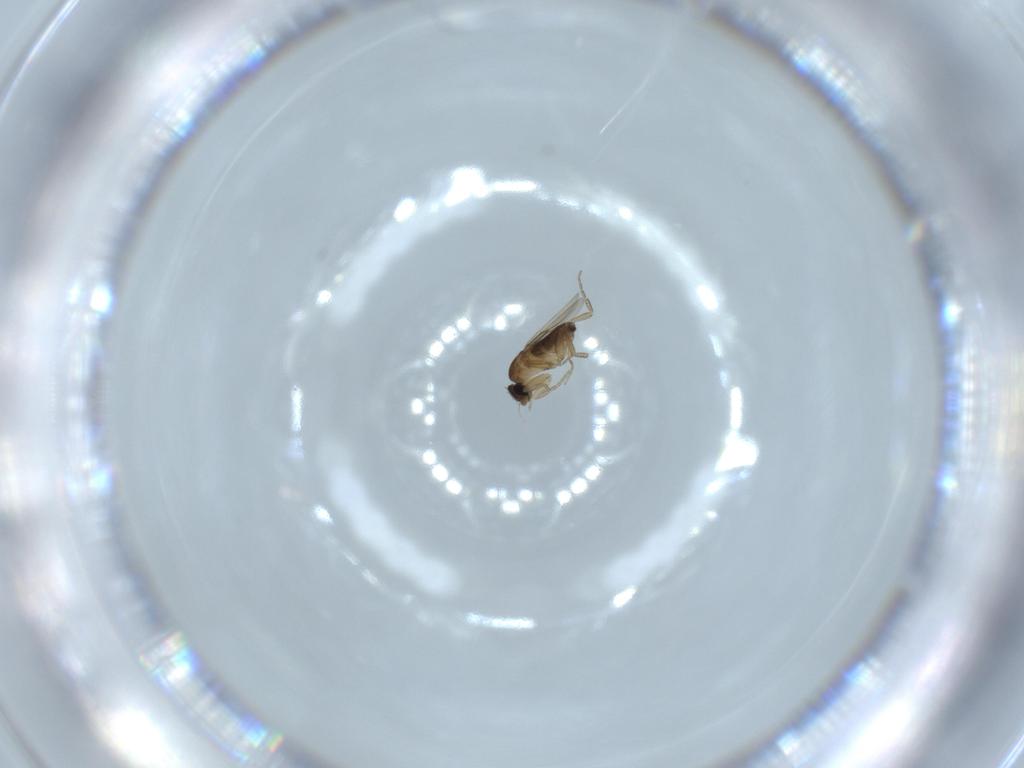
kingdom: Animalia
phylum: Arthropoda
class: Insecta
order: Diptera
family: Phoridae
